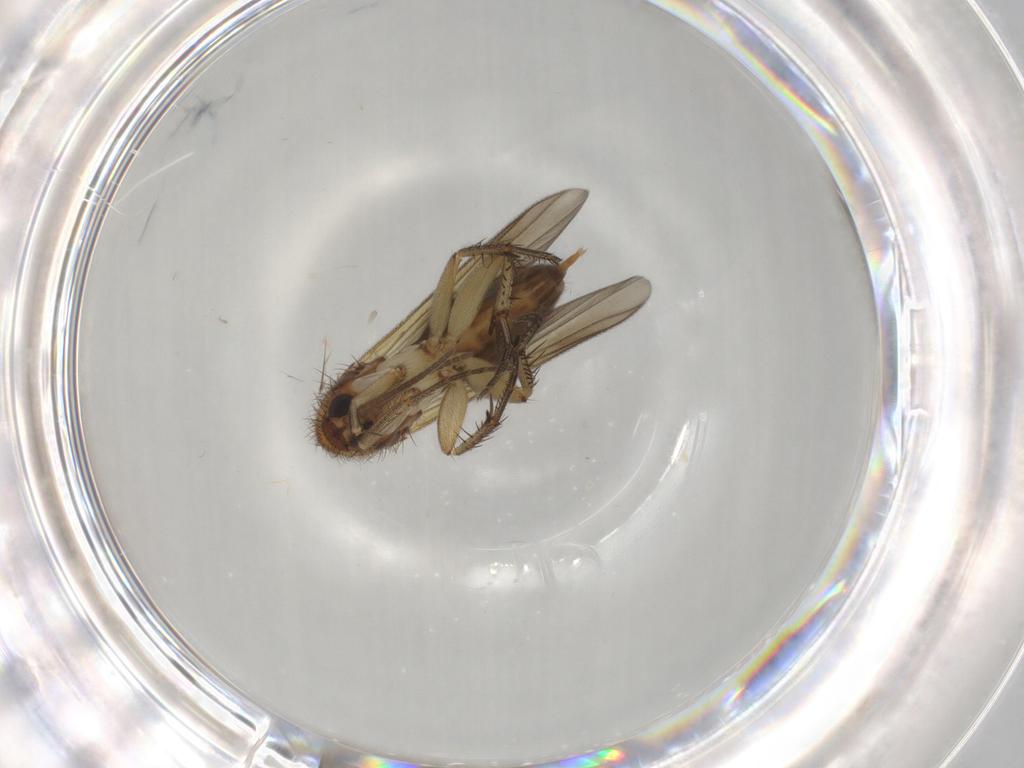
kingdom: Animalia
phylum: Arthropoda
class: Insecta
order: Diptera
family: Mycetophilidae
